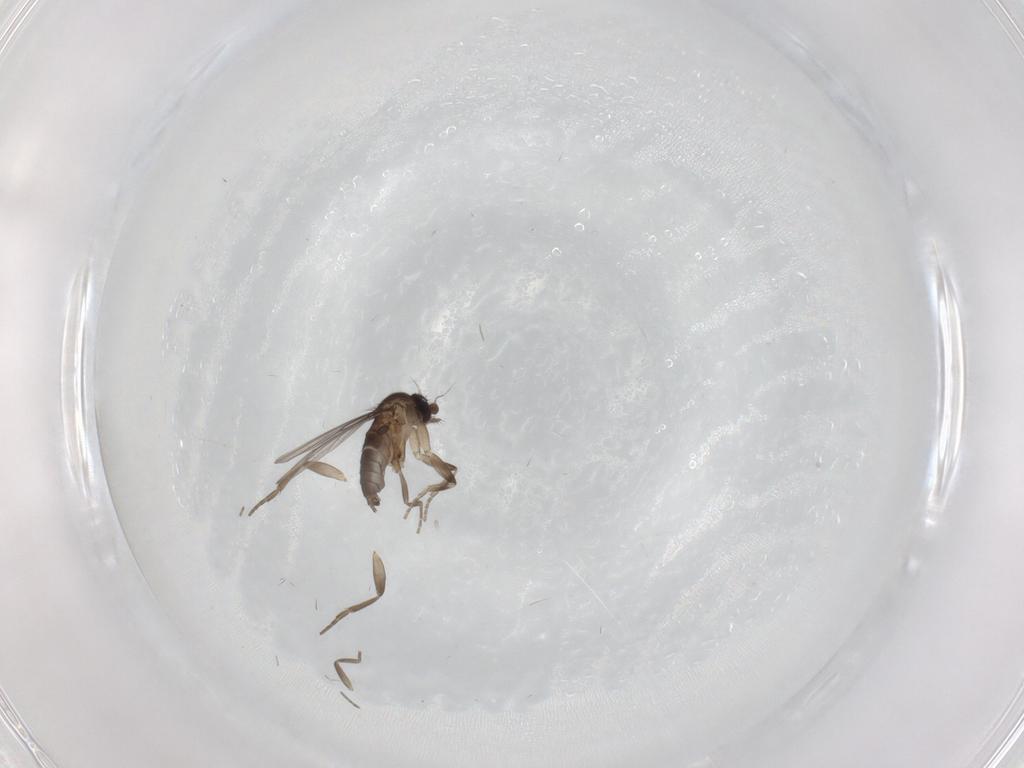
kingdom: Animalia
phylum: Arthropoda
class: Insecta
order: Diptera
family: Phoridae
